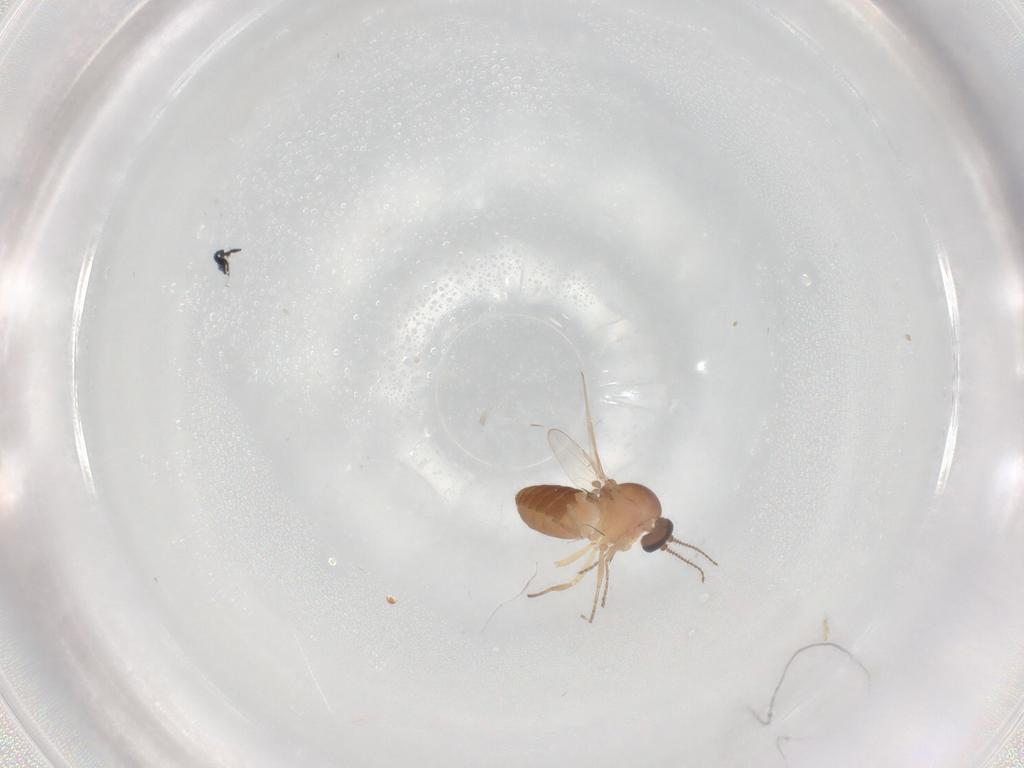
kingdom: Animalia
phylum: Arthropoda
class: Insecta
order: Diptera
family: Ceratopogonidae
